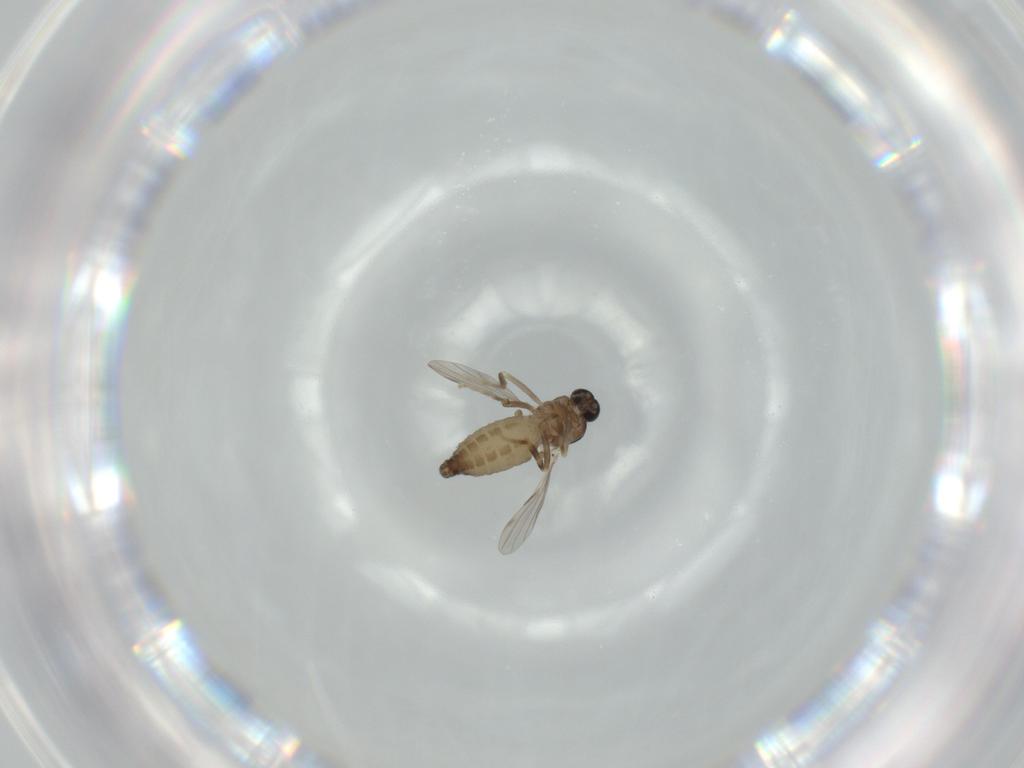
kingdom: Animalia
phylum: Arthropoda
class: Insecta
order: Diptera
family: Ceratopogonidae
